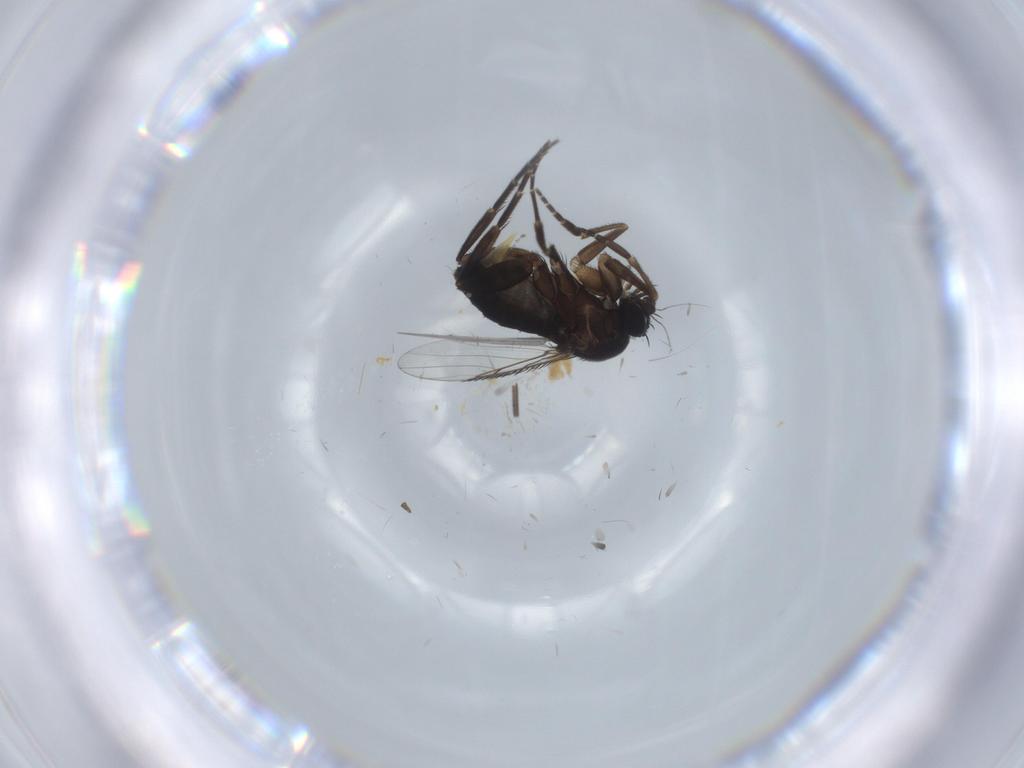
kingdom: Animalia
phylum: Arthropoda
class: Insecta
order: Diptera
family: Phoridae
